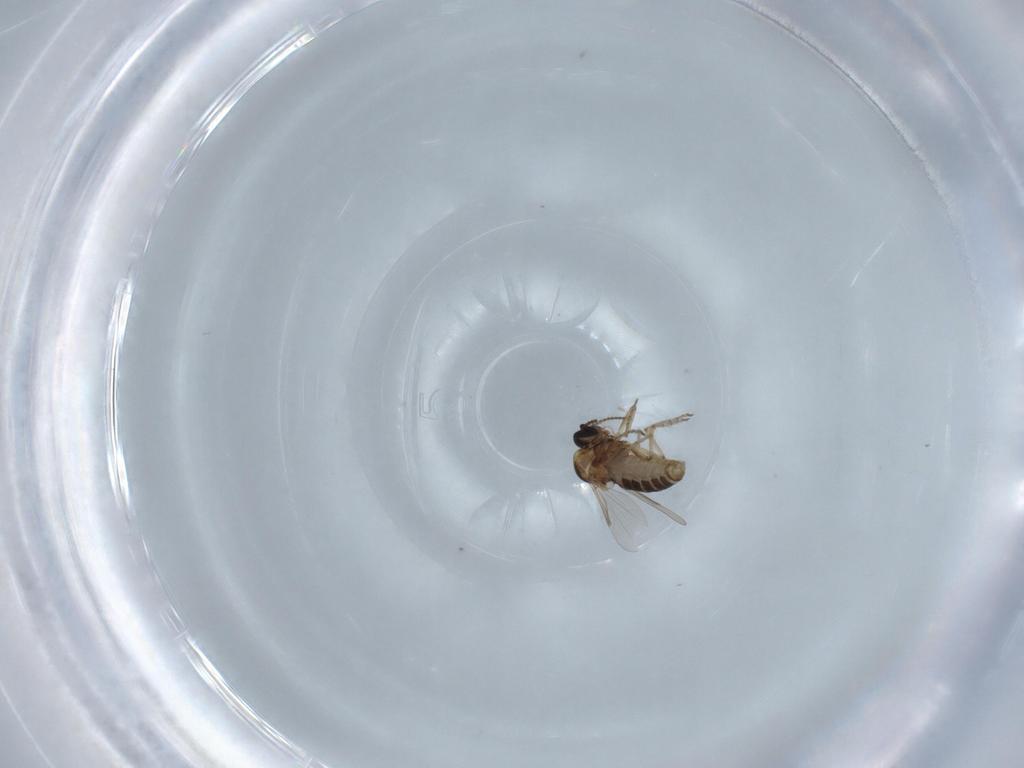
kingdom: Animalia
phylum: Arthropoda
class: Insecta
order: Diptera
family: Ceratopogonidae
